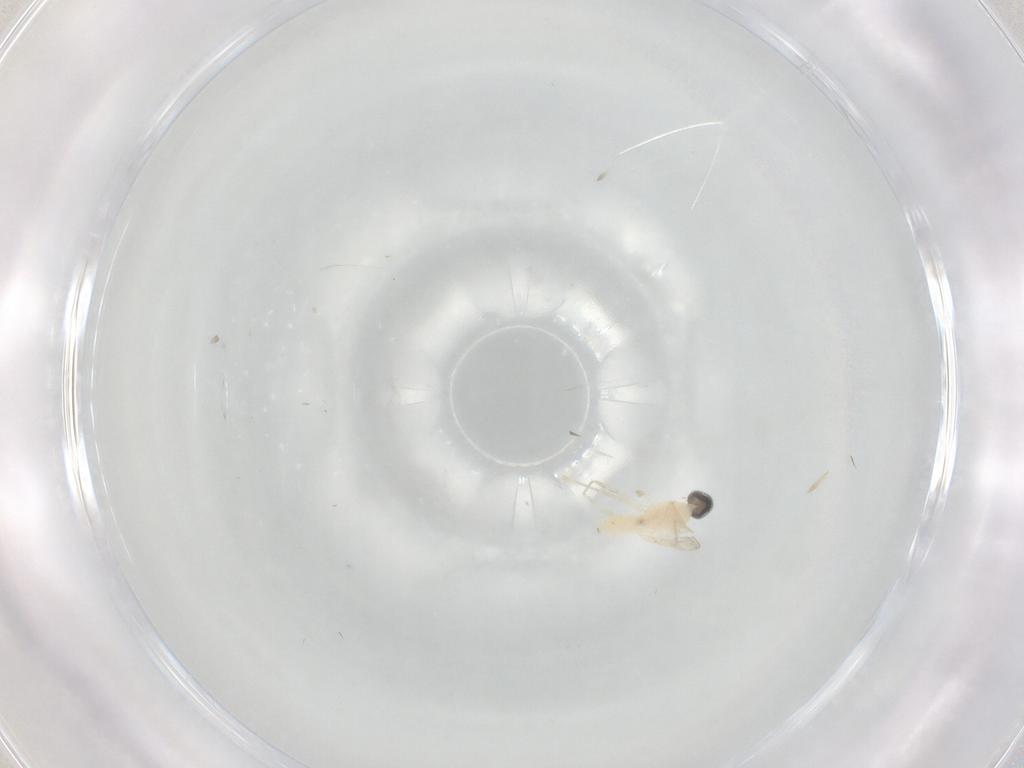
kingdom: Animalia
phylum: Arthropoda
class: Insecta
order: Diptera
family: Cecidomyiidae
